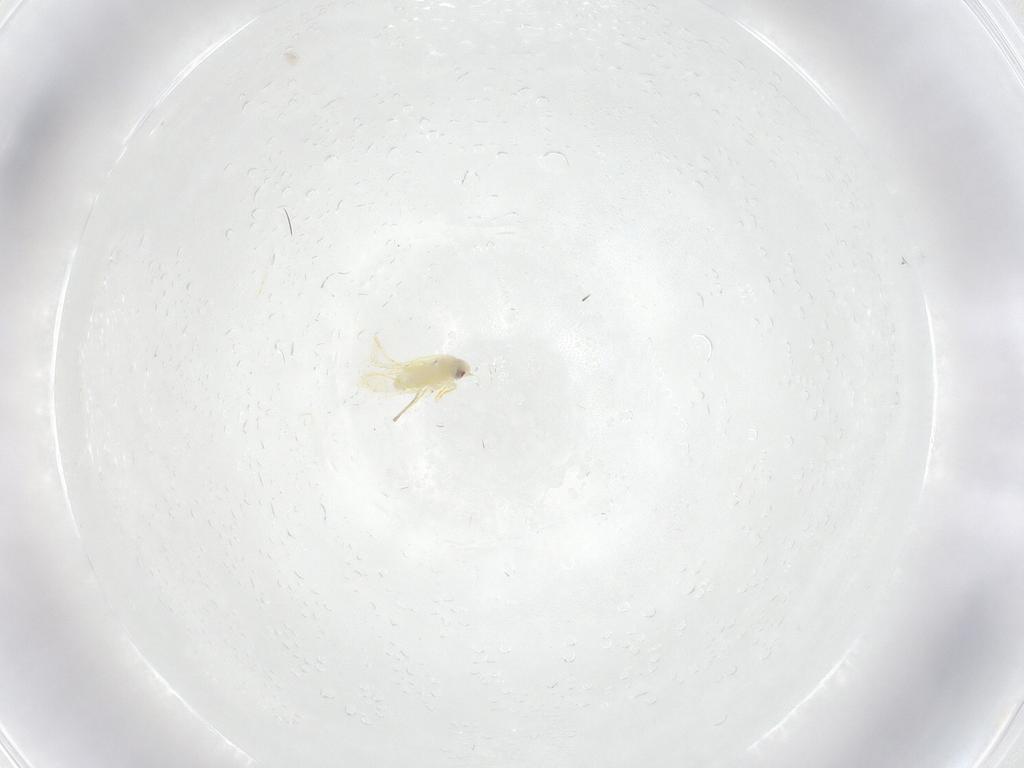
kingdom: Animalia
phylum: Arthropoda
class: Insecta
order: Hemiptera
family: Aleyrodidae
